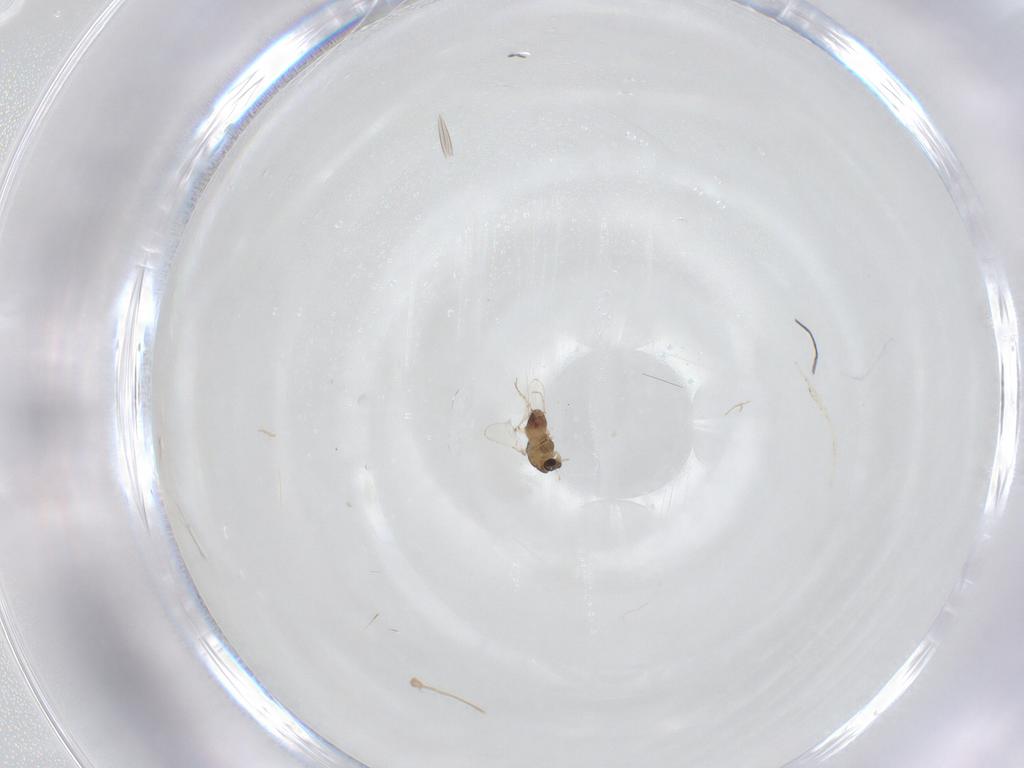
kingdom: Animalia
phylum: Arthropoda
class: Insecta
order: Diptera
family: Chironomidae
